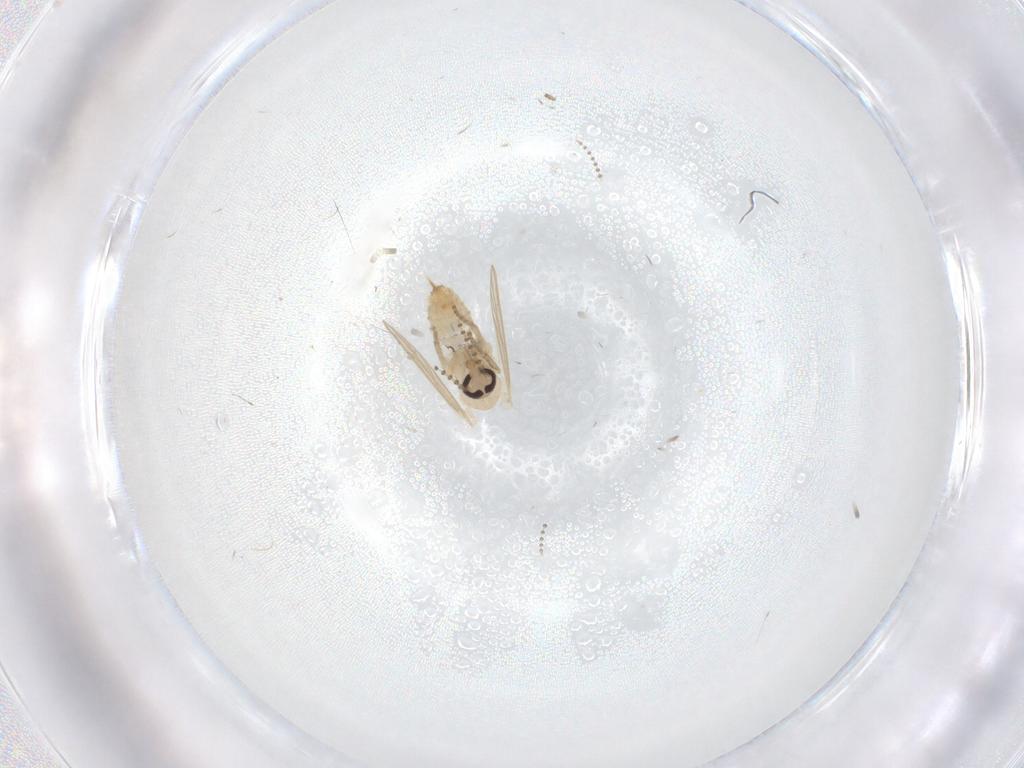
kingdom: Animalia
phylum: Arthropoda
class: Insecta
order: Diptera
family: Psychodidae
